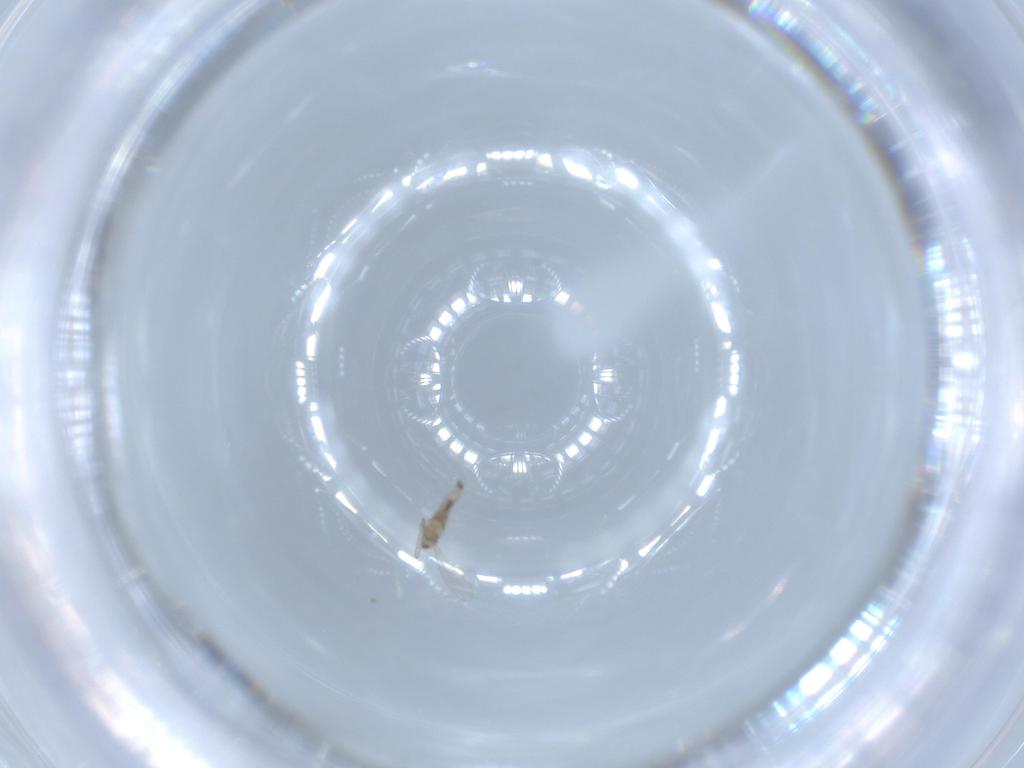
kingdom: Animalia
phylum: Arthropoda
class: Insecta
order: Diptera
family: Cecidomyiidae
